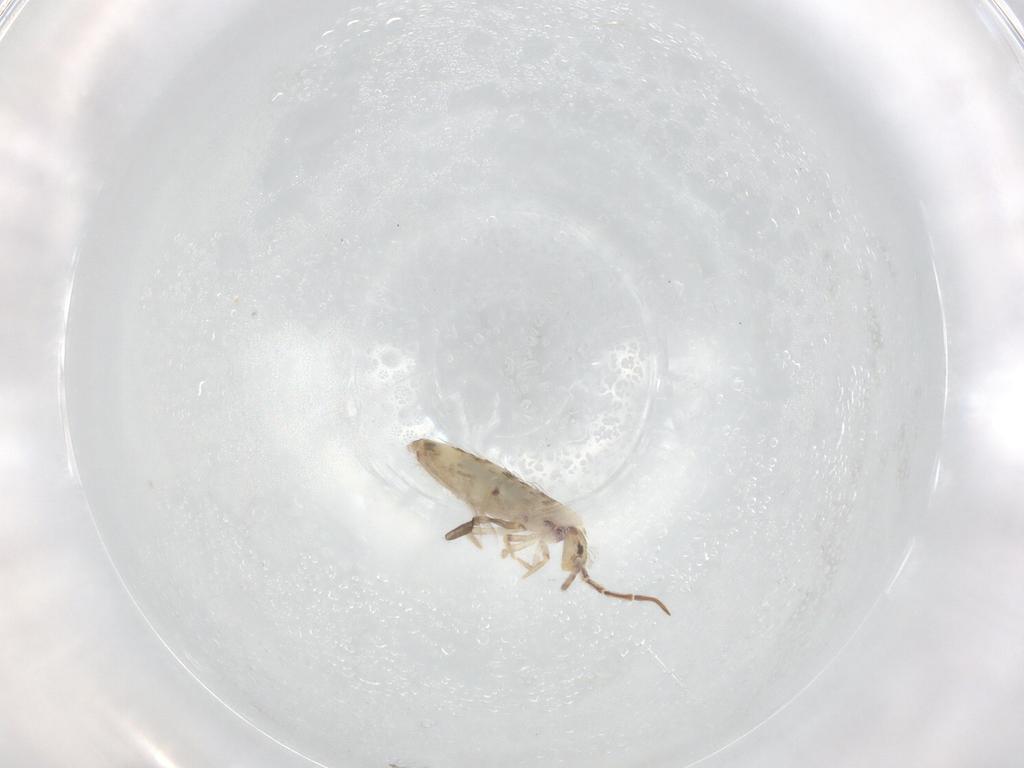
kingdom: Animalia
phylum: Arthropoda
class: Collembola
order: Entomobryomorpha
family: Entomobryidae
